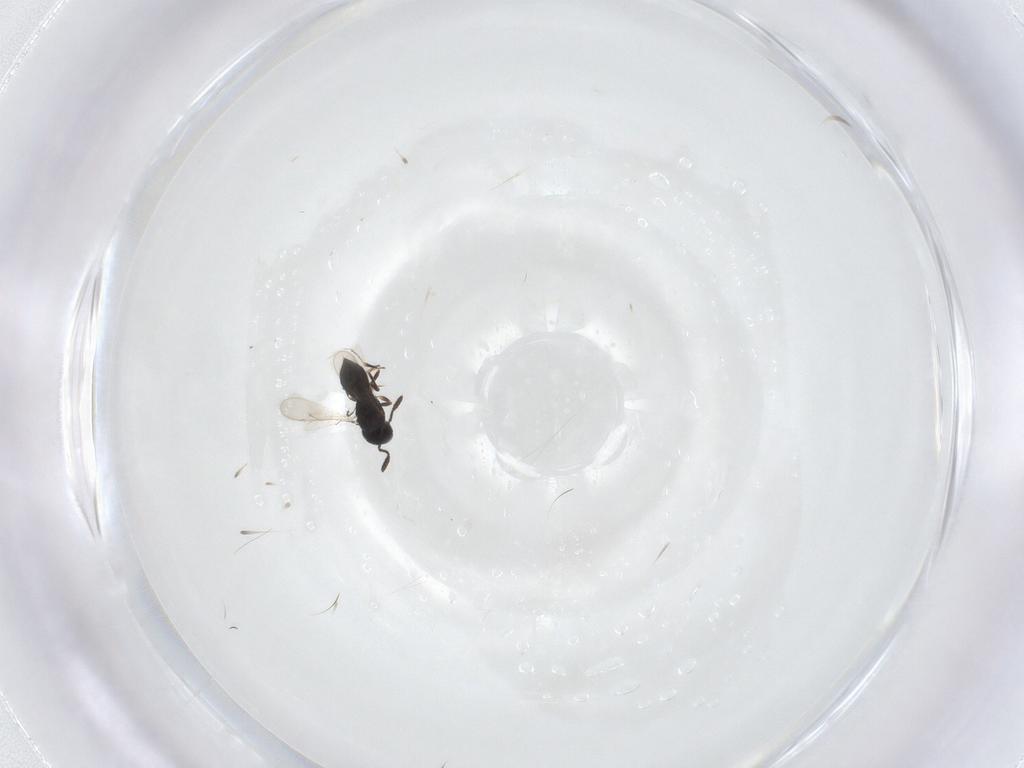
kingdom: Animalia
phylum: Arthropoda
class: Insecta
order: Hymenoptera
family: Scelionidae
